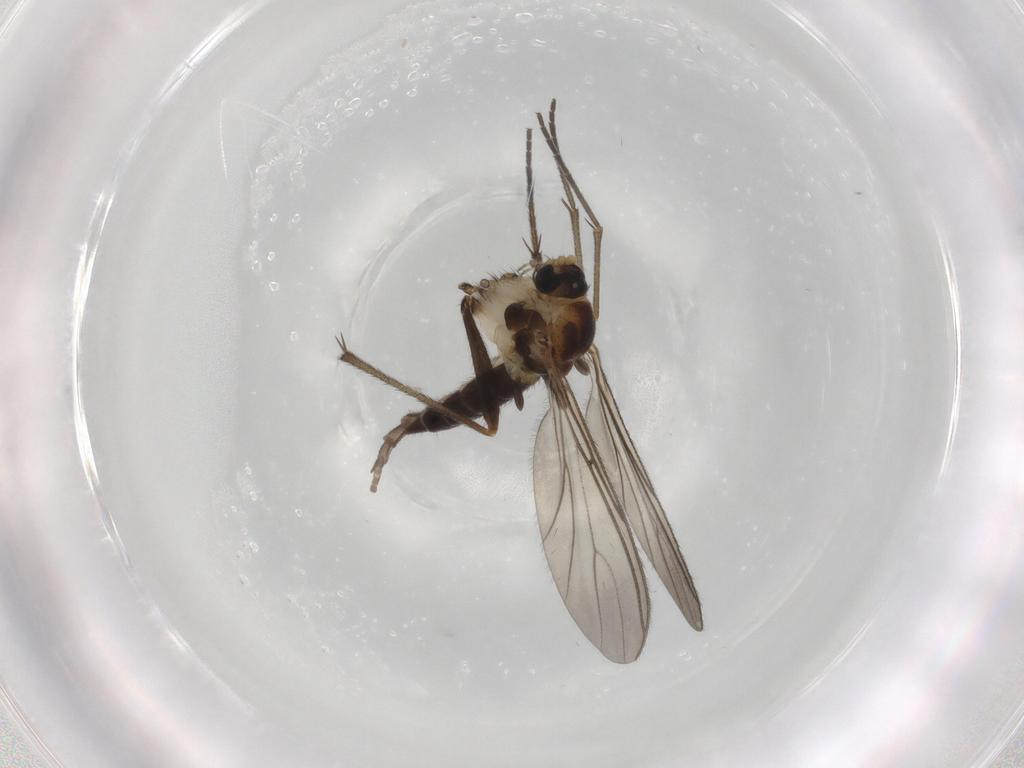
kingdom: Animalia
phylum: Arthropoda
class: Insecta
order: Diptera
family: Sciaridae
